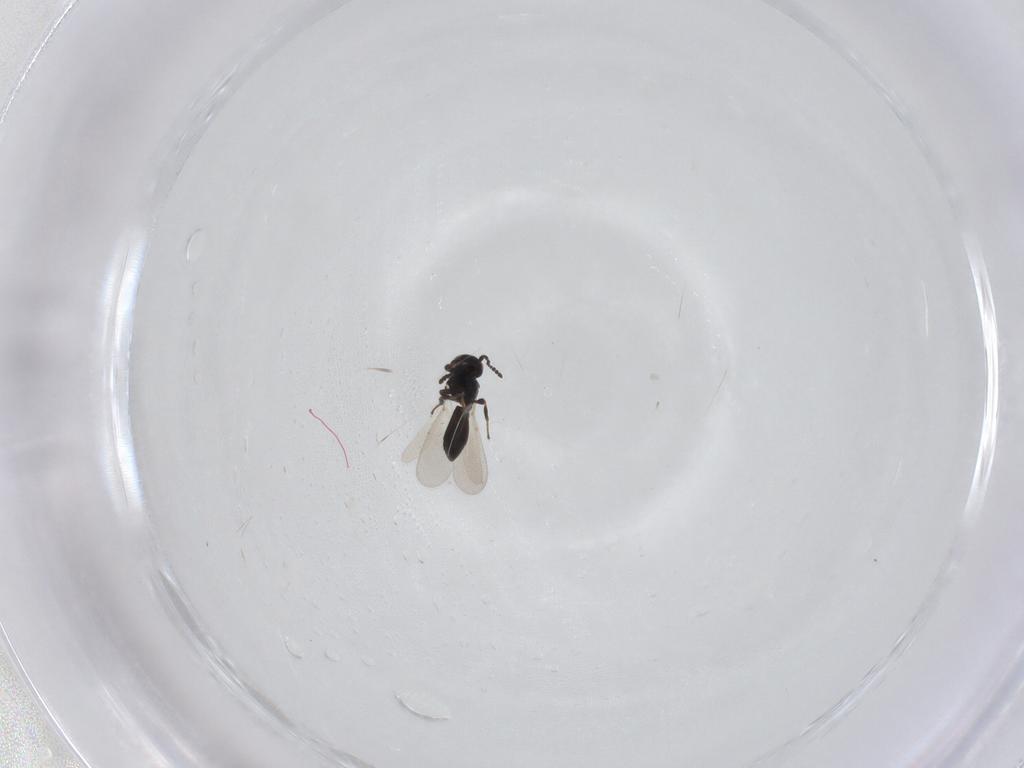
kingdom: Animalia
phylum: Arthropoda
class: Insecta
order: Hymenoptera
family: Platygastridae
